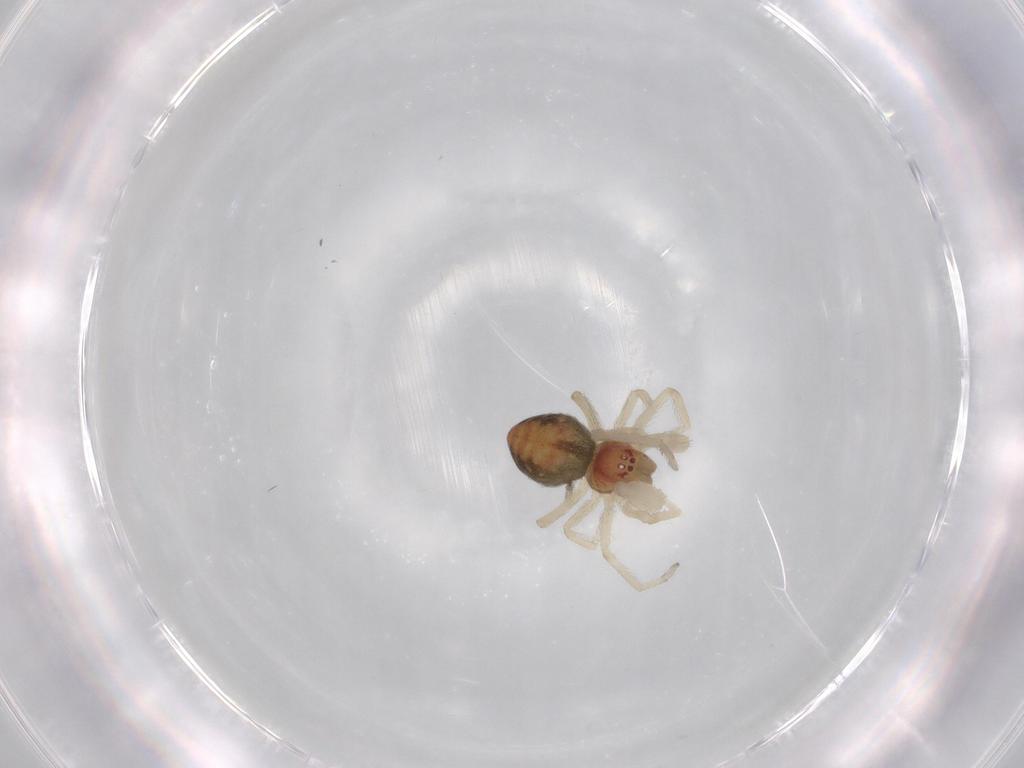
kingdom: Animalia
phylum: Arthropoda
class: Arachnida
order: Araneae
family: Dictynidae
